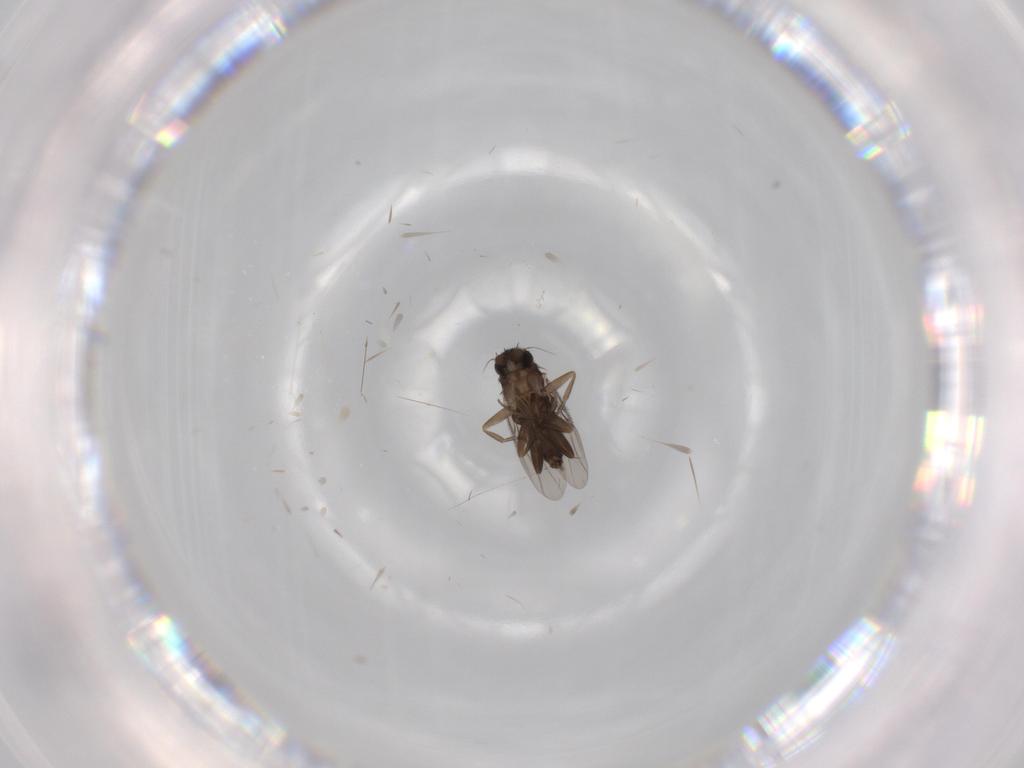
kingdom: Animalia
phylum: Arthropoda
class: Insecta
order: Diptera
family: Phoridae
